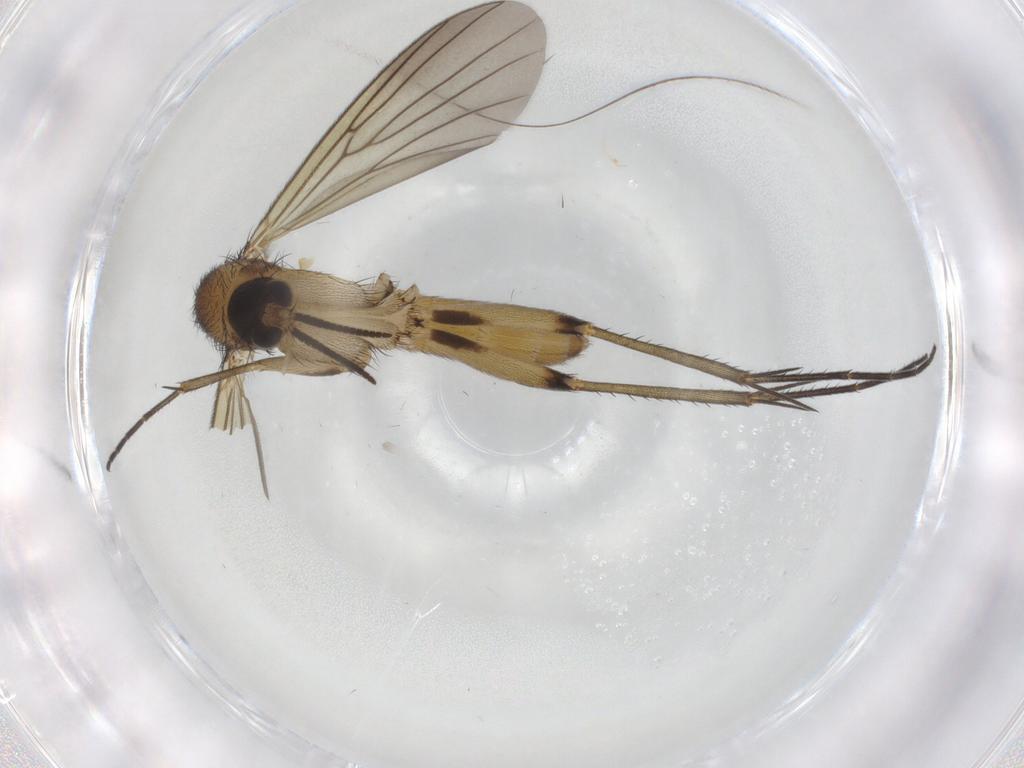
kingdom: Animalia
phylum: Arthropoda
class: Insecta
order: Diptera
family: Mycetophilidae
